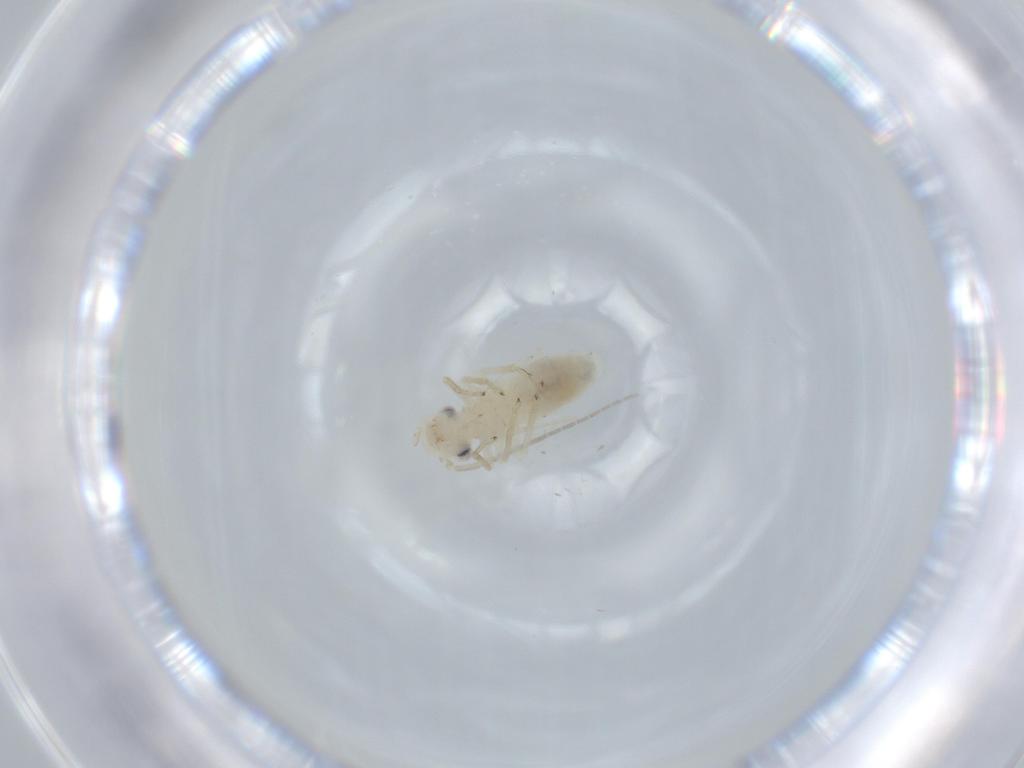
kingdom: Animalia
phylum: Arthropoda
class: Insecta
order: Psocodea
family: Caeciliusidae
